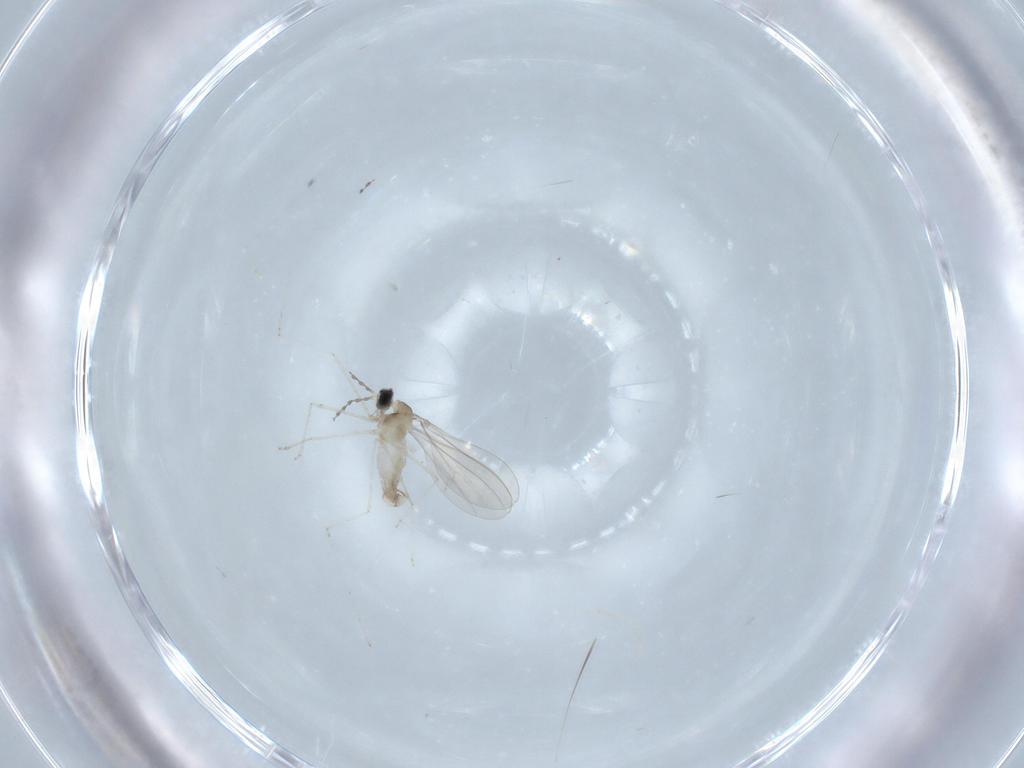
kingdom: Animalia
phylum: Arthropoda
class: Insecta
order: Diptera
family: Cecidomyiidae
